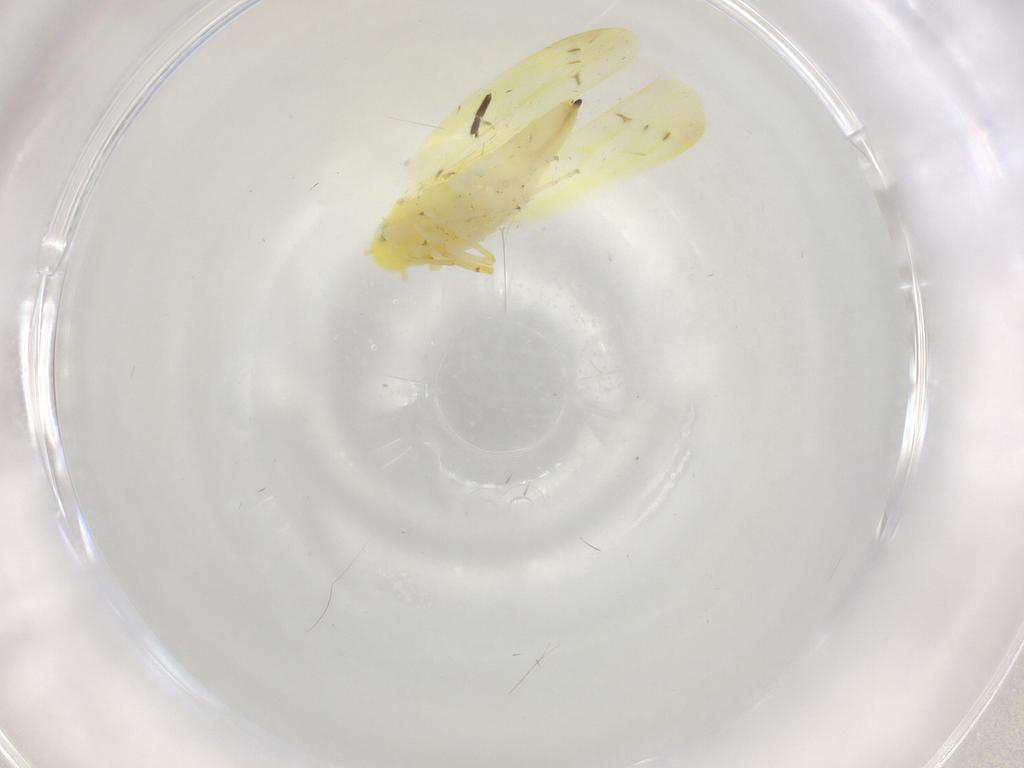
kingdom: Animalia
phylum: Arthropoda
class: Insecta
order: Hemiptera
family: Cicadellidae
